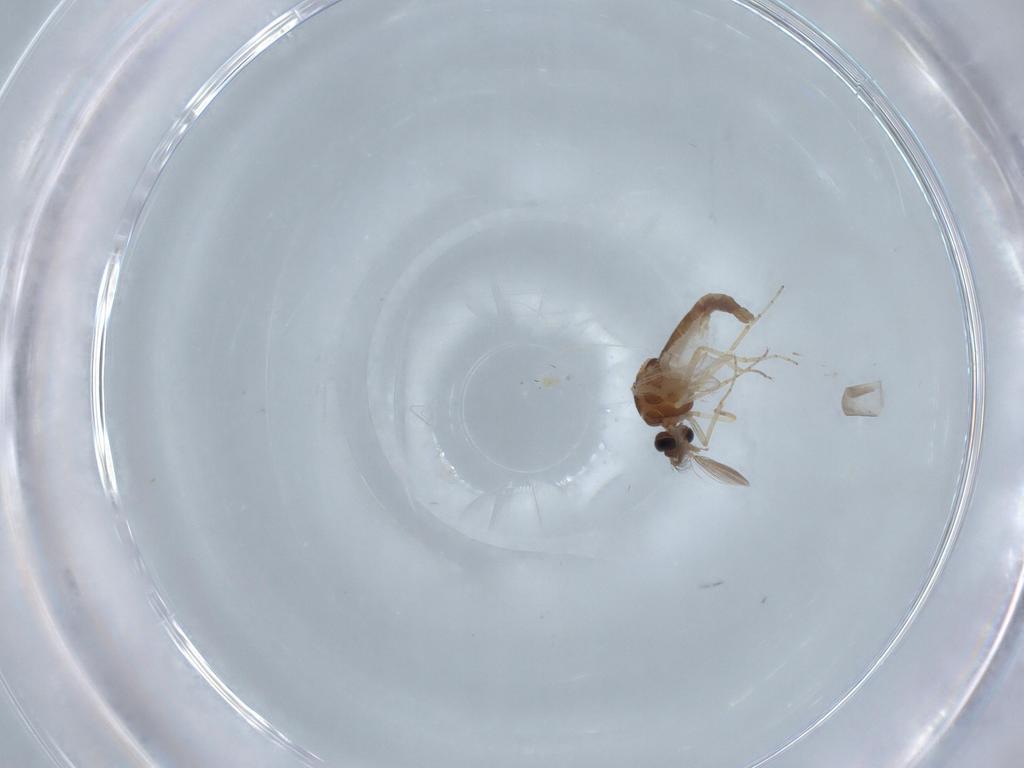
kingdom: Animalia
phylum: Arthropoda
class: Insecta
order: Diptera
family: Ceratopogonidae
